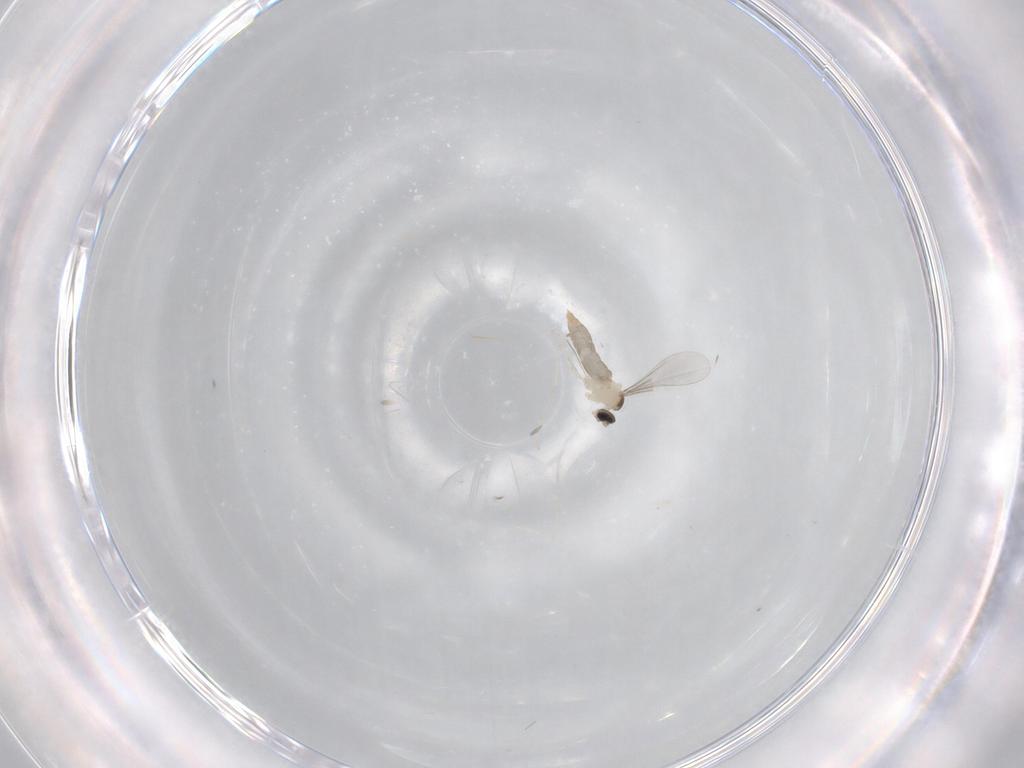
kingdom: Animalia
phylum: Arthropoda
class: Insecta
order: Diptera
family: Cecidomyiidae
